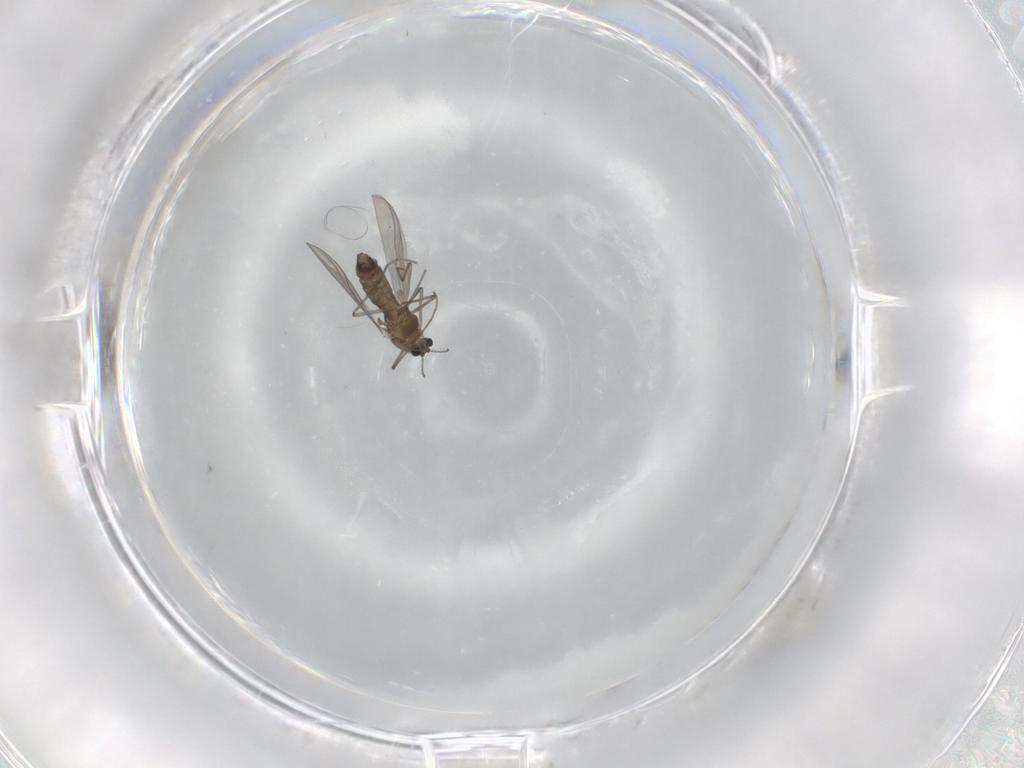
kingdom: Animalia
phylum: Arthropoda
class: Insecta
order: Diptera
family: Chironomidae
